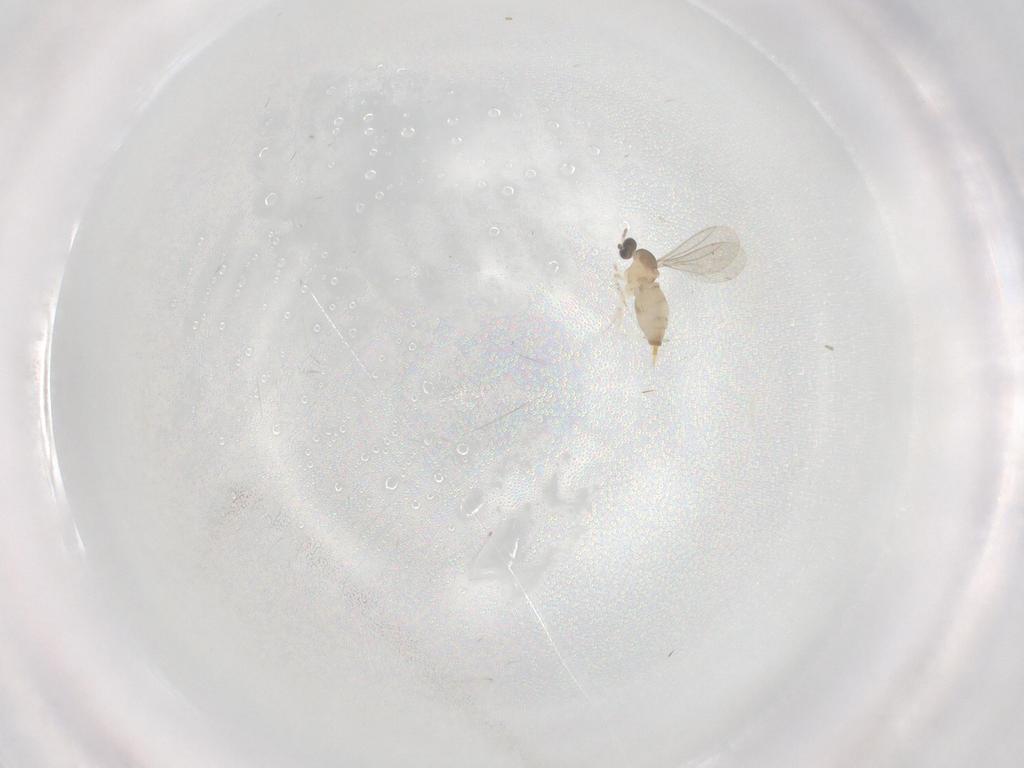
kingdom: Animalia
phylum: Arthropoda
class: Insecta
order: Diptera
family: Cecidomyiidae
